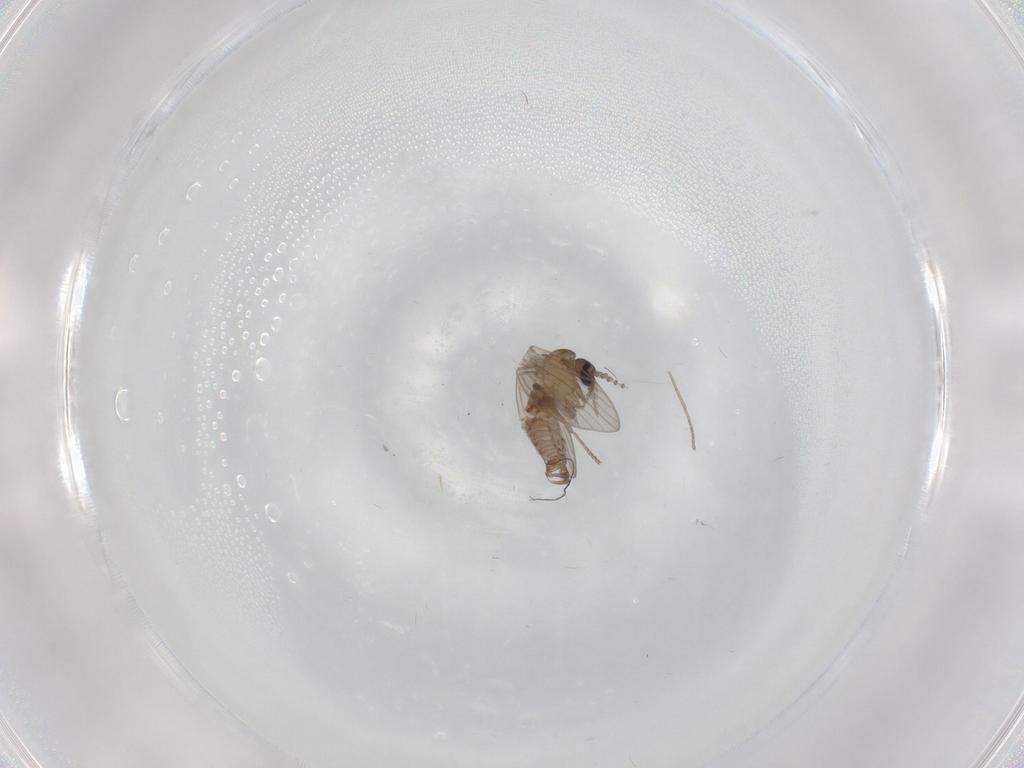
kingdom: Animalia
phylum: Arthropoda
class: Insecta
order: Diptera
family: Psychodidae
